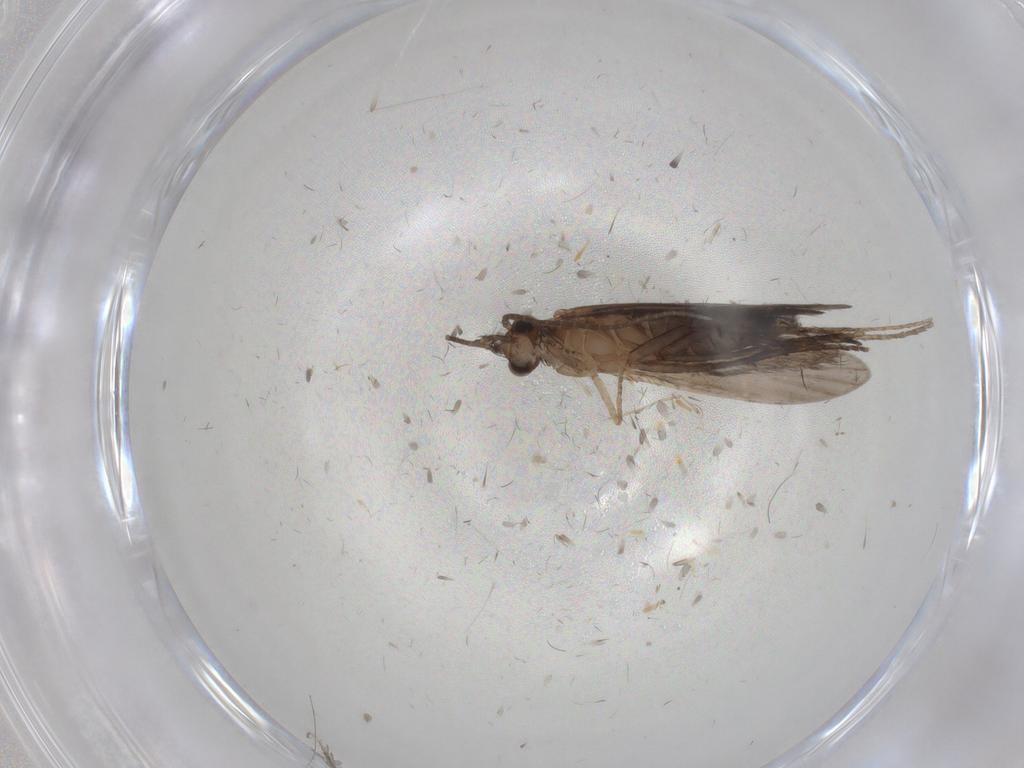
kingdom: Animalia
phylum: Arthropoda
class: Insecta
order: Trichoptera
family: Xiphocentronidae
